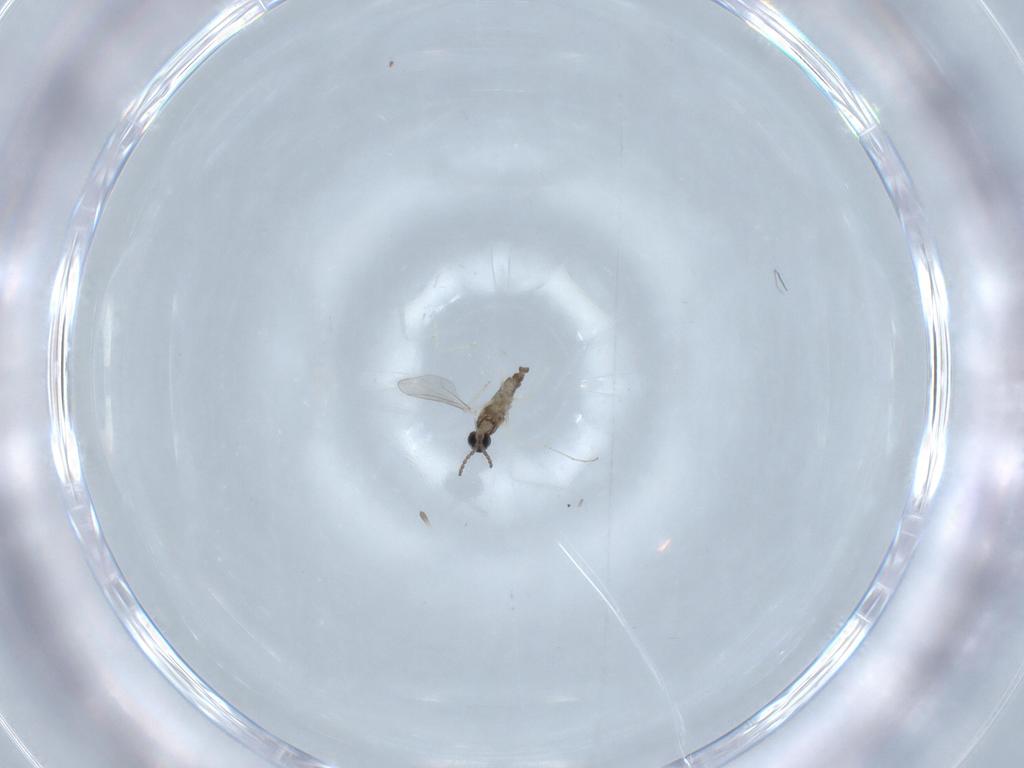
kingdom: Animalia
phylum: Arthropoda
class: Insecta
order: Diptera
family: Cecidomyiidae
